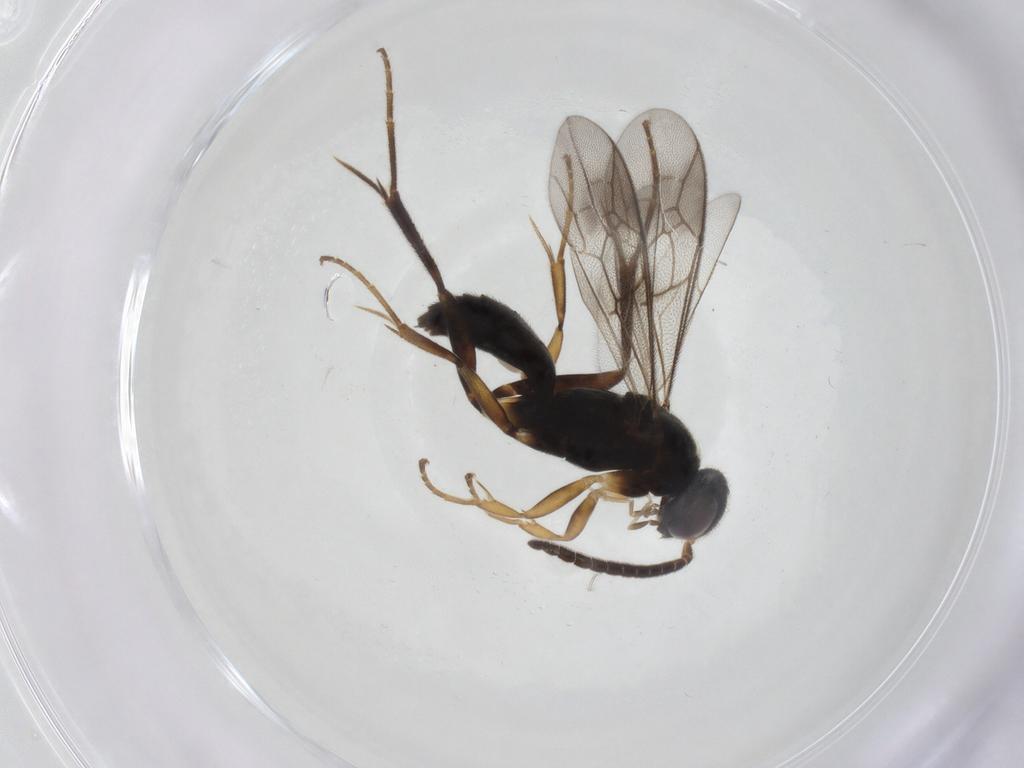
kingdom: Animalia
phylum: Arthropoda
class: Insecta
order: Hymenoptera
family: Pompilidae
